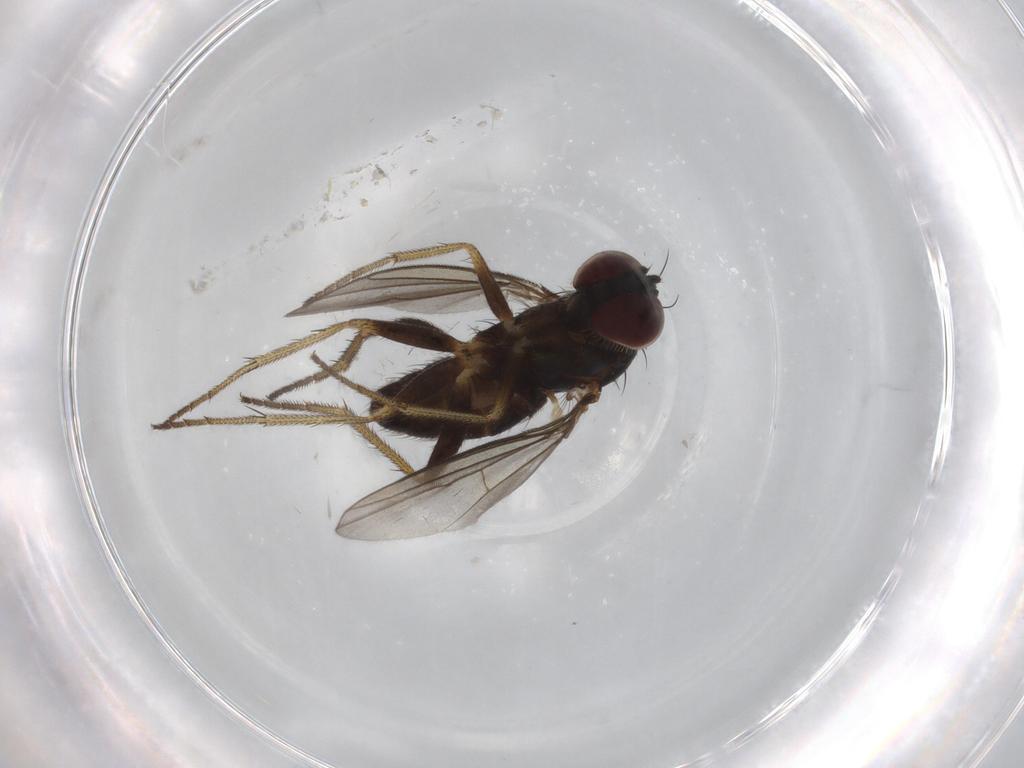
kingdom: Animalia
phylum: Arthropoda
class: Insecta
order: Diptera
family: Dolichopodidae
